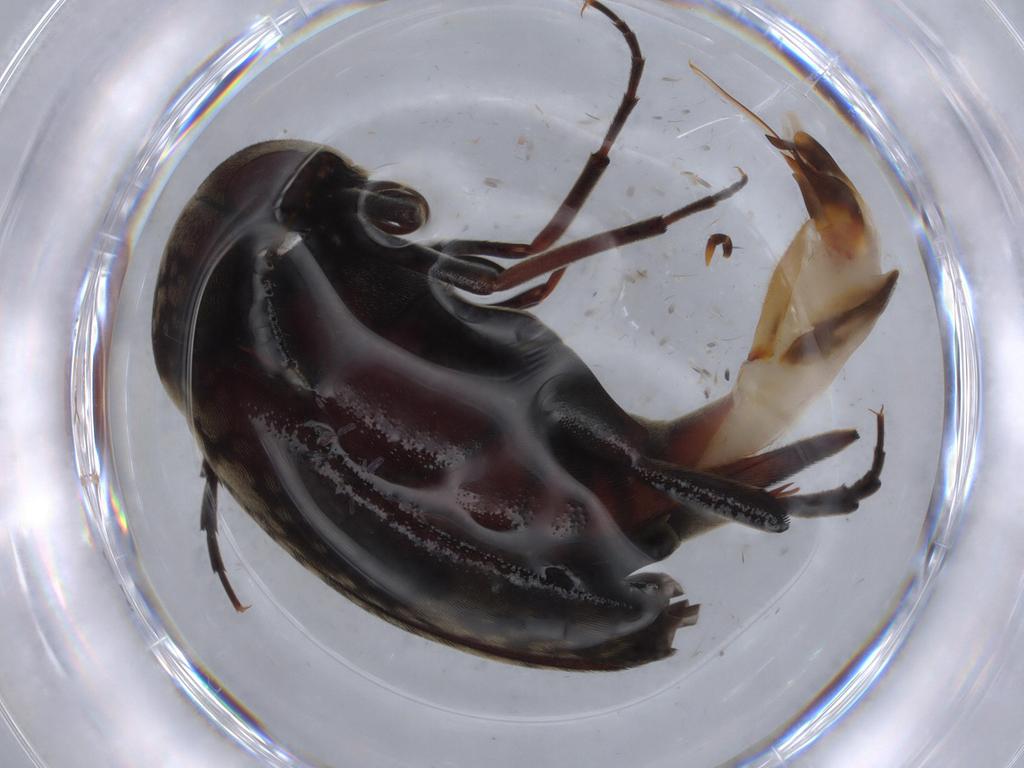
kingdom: Animalia
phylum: Arthropoda
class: Insecta
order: Coleoptera
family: Cerambycidae
